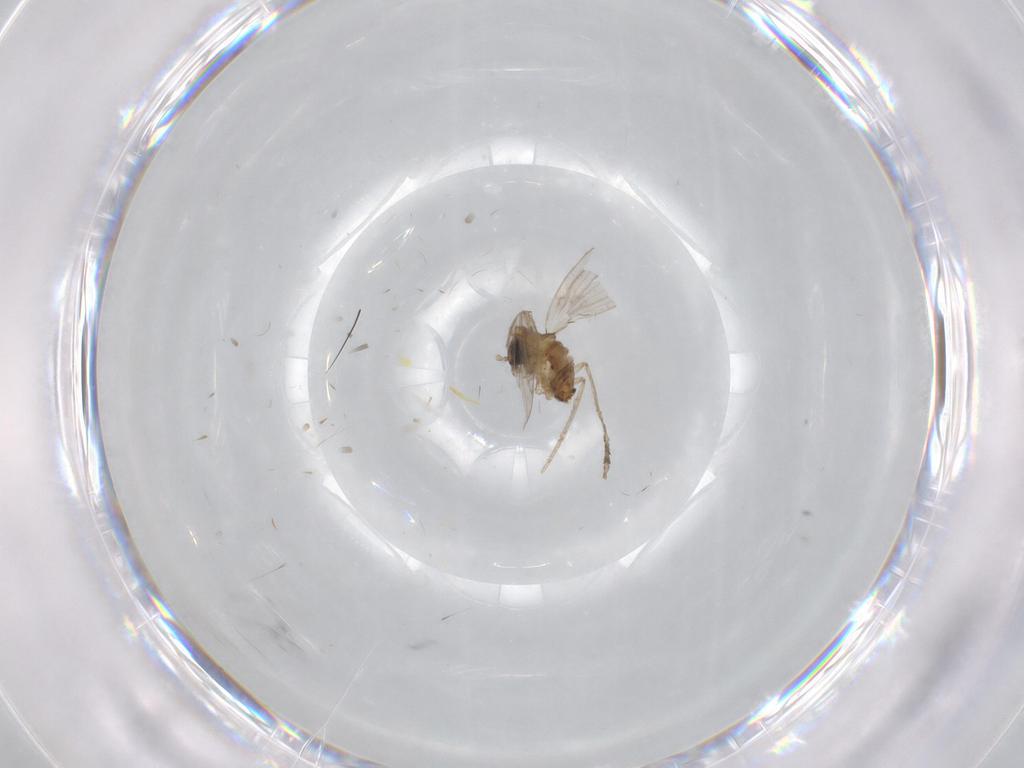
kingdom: Animalia
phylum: Arthropoda
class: Insecta
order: Diptera
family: Psychodidae
